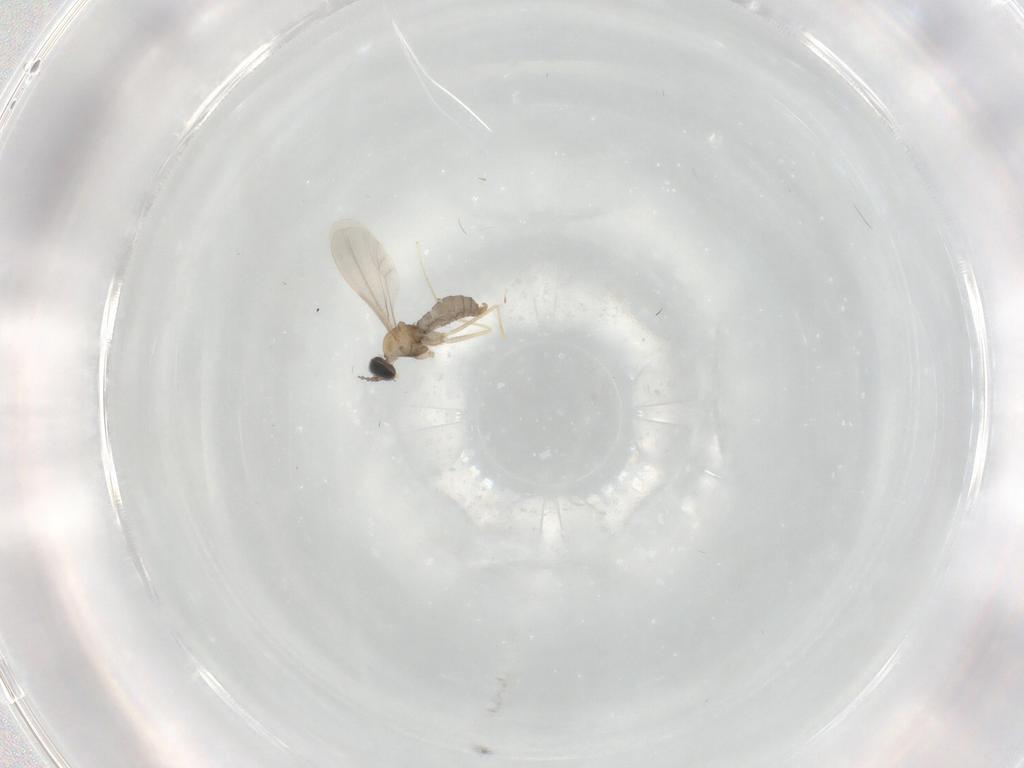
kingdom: Animalia
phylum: Arthropoda
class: Insecta
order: Diptera
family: Cecidomyiidae
